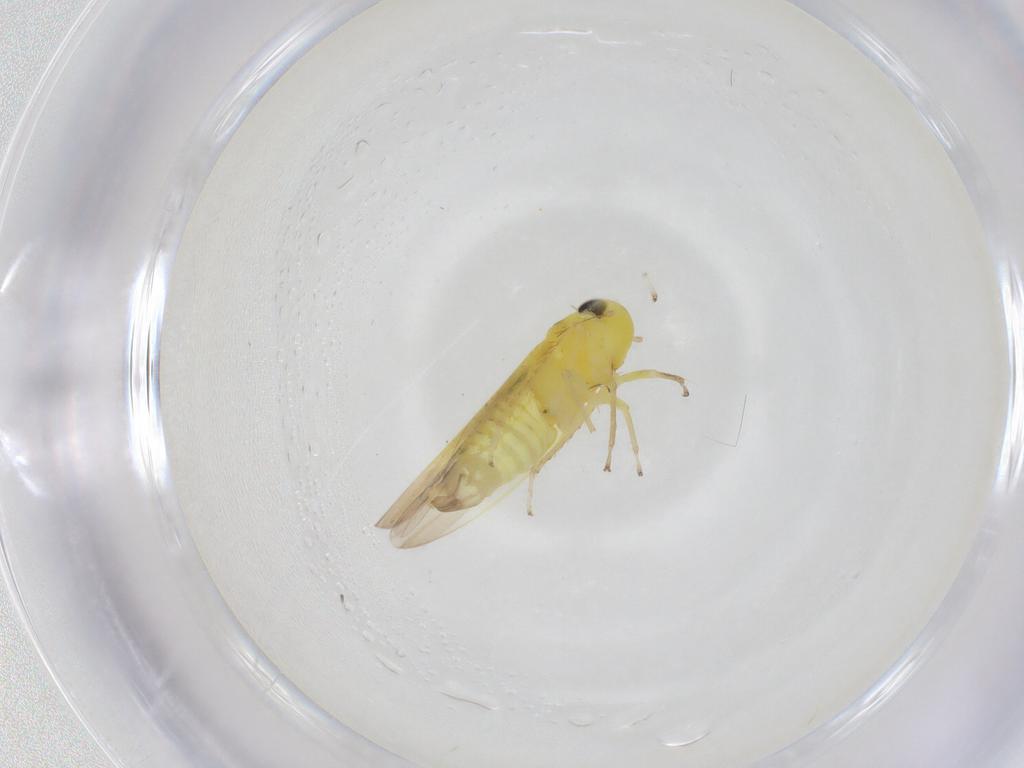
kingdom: Animalia
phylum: Arthropoda
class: Insecta
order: Hemiptera
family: Cicadellidae
